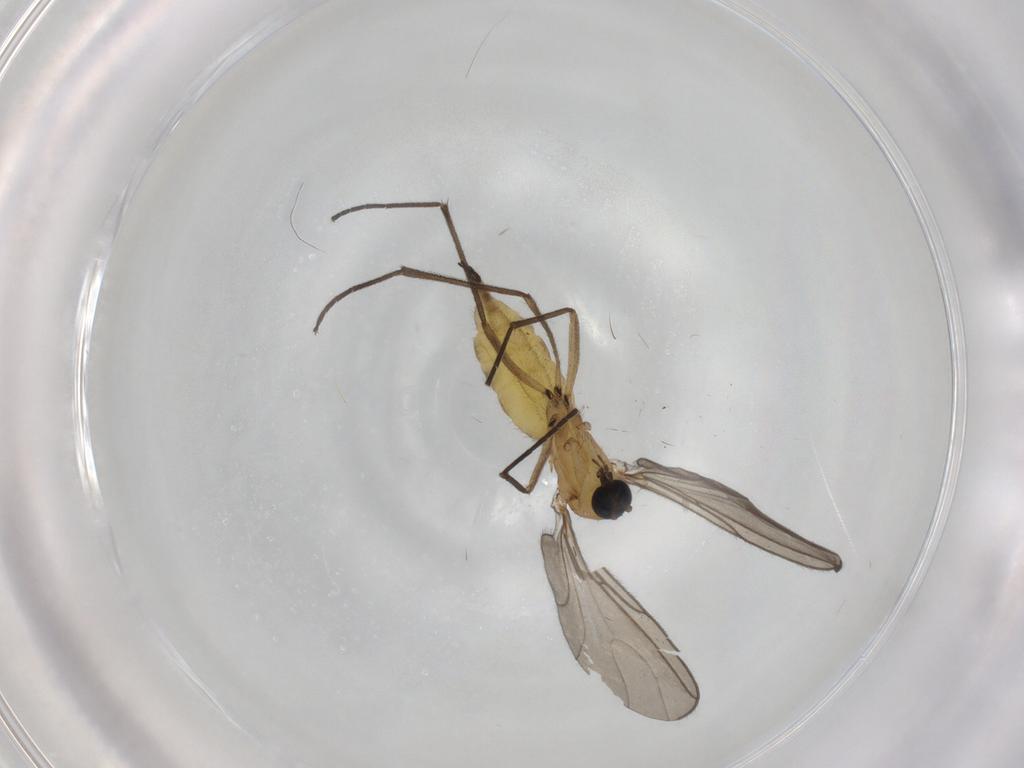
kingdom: Animalia
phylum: Arthropoda
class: Insecta
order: Diptera
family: Sciaridae
